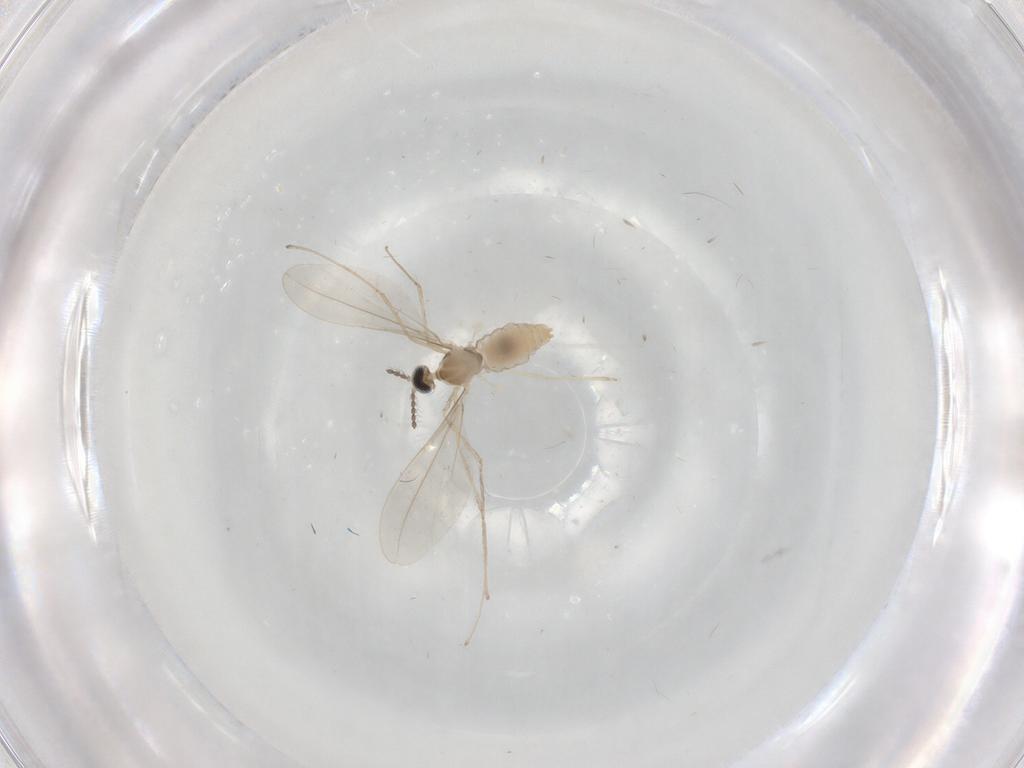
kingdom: Animalia
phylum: Arthropoda
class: Insecta
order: Diptera
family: Cecidomyiidae
